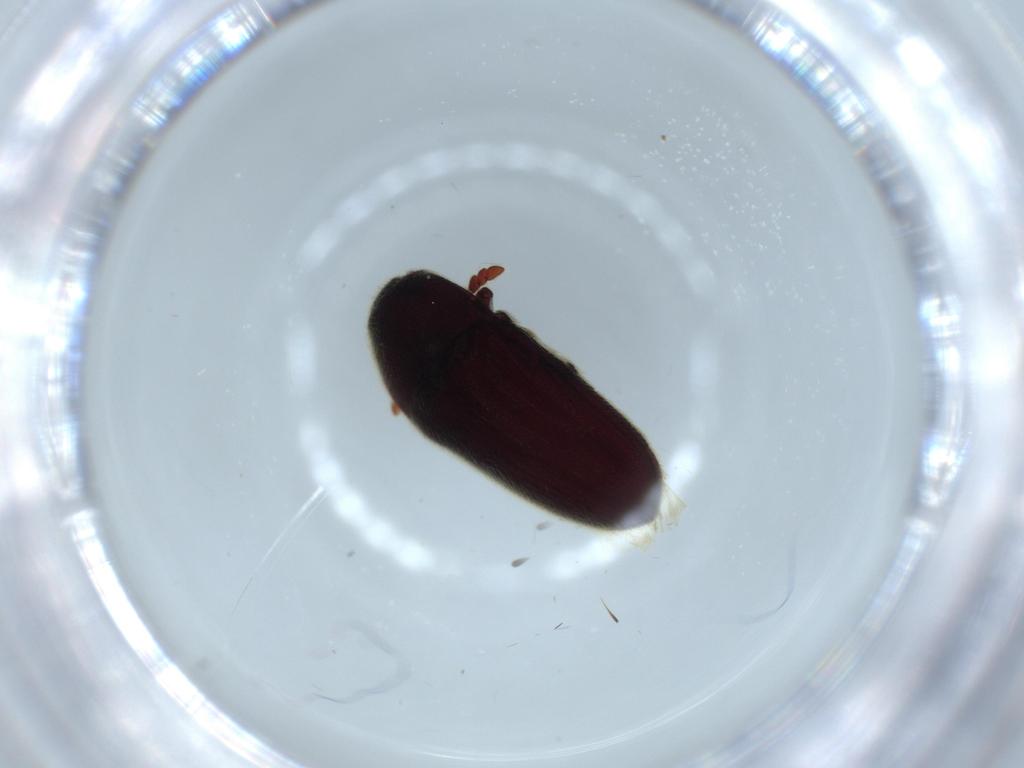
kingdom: Animalia
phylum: Arthropoda
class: Insecta
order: Coleoptera
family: Throscidae
